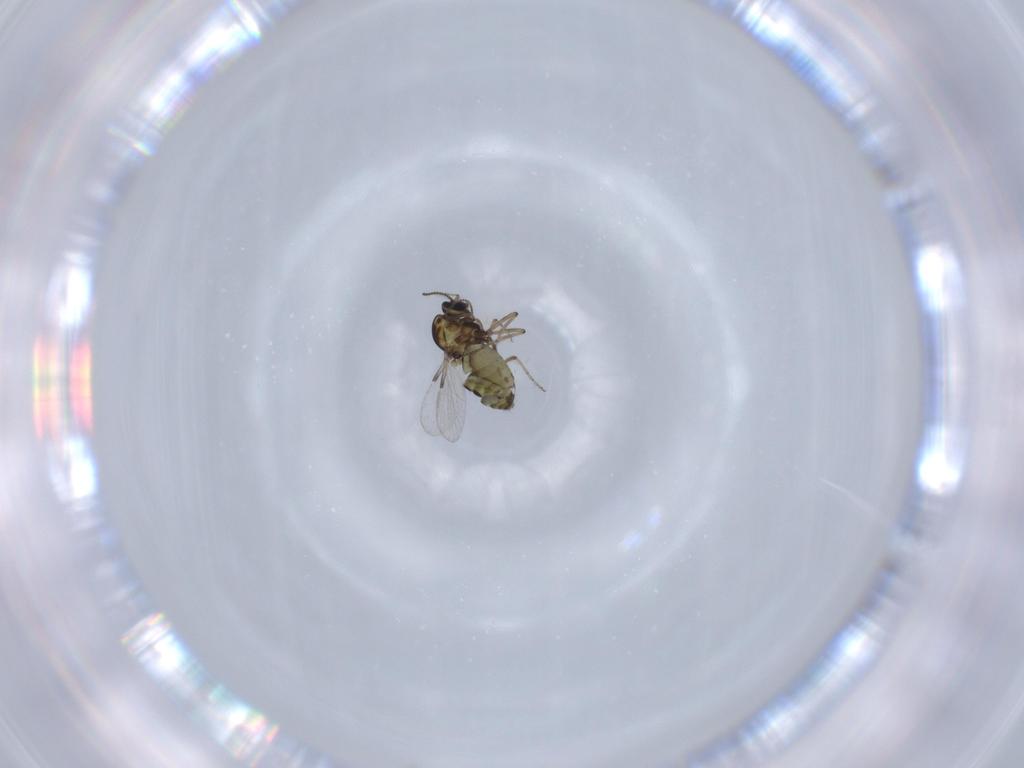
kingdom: Animalia
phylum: Arthropoda
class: Insecta
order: Diptera
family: Ceratopogonidae
